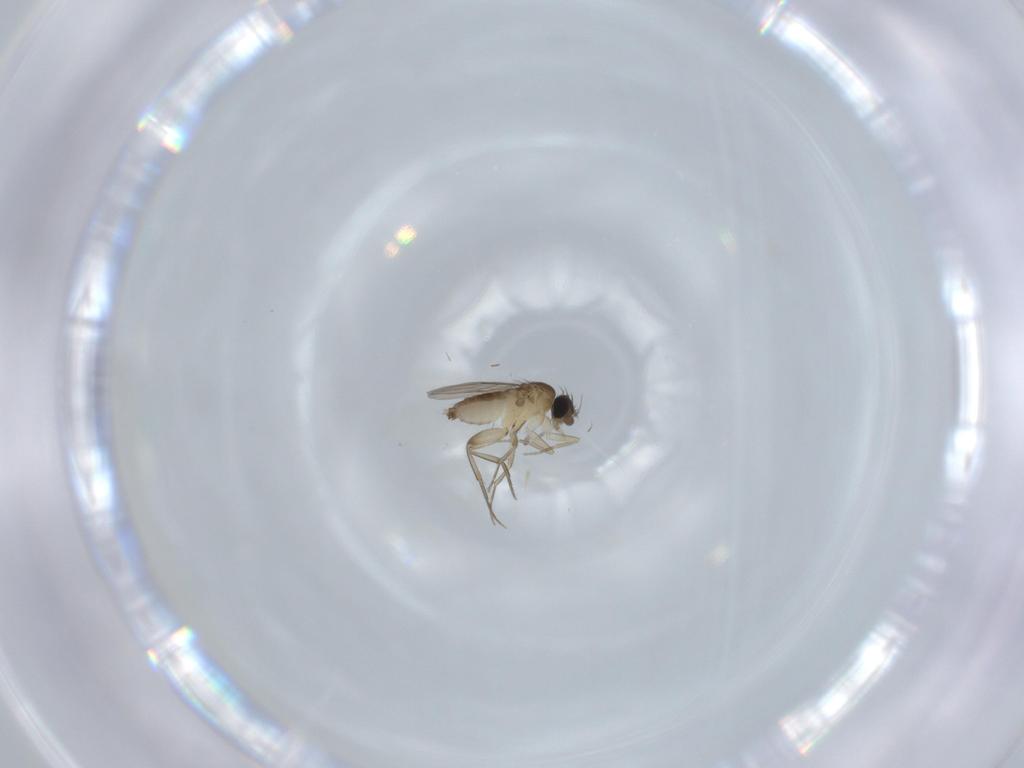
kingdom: Animalia
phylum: Arthropoda
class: Insecta
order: Diptera
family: Phoridae
